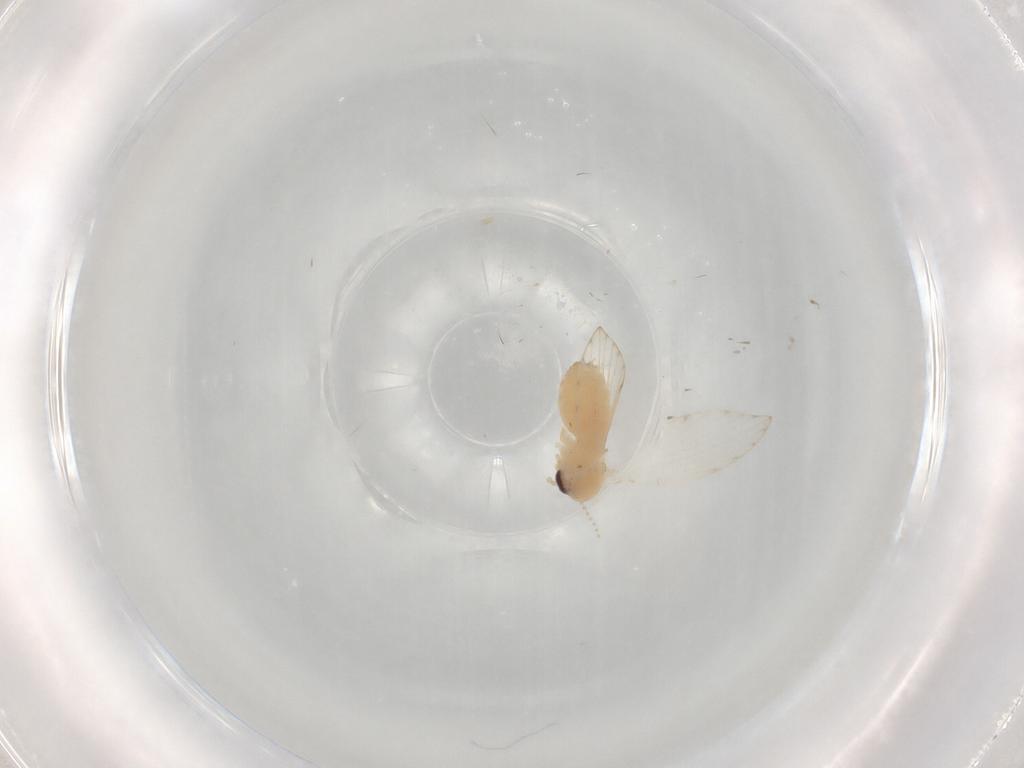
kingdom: Animalia
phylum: Arthropoda
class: Insecta
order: Diptera
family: Psychodidae
